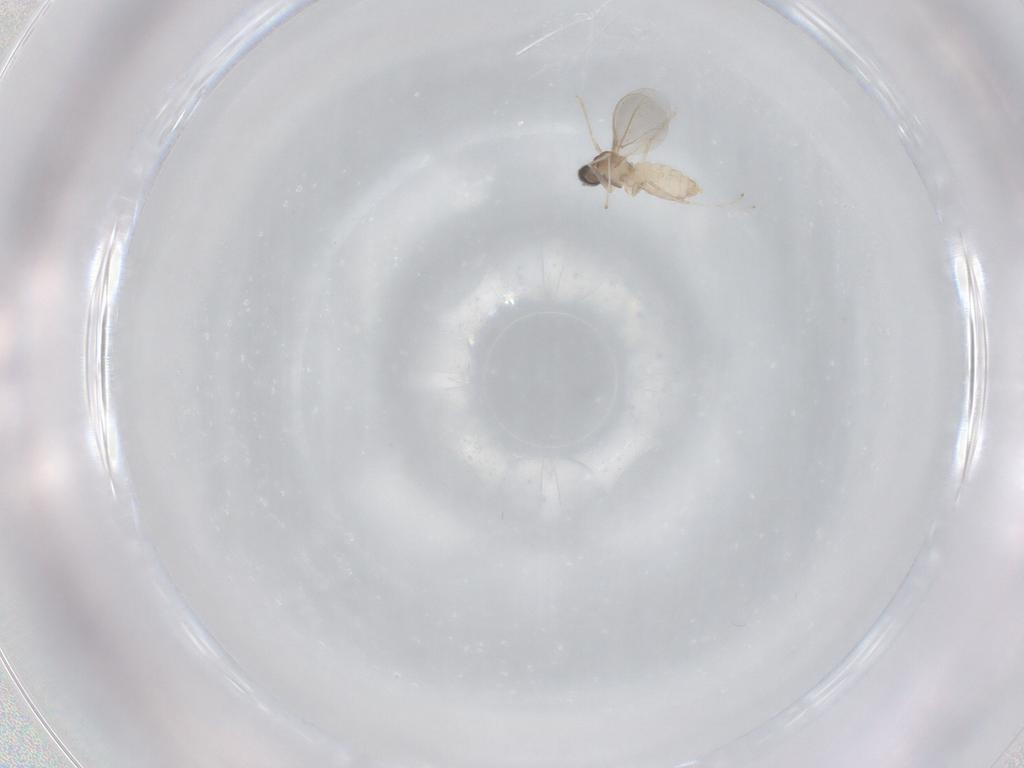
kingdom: Animalia
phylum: Arthropoda
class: Insecta
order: Diptera
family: Cecidomyiidae
